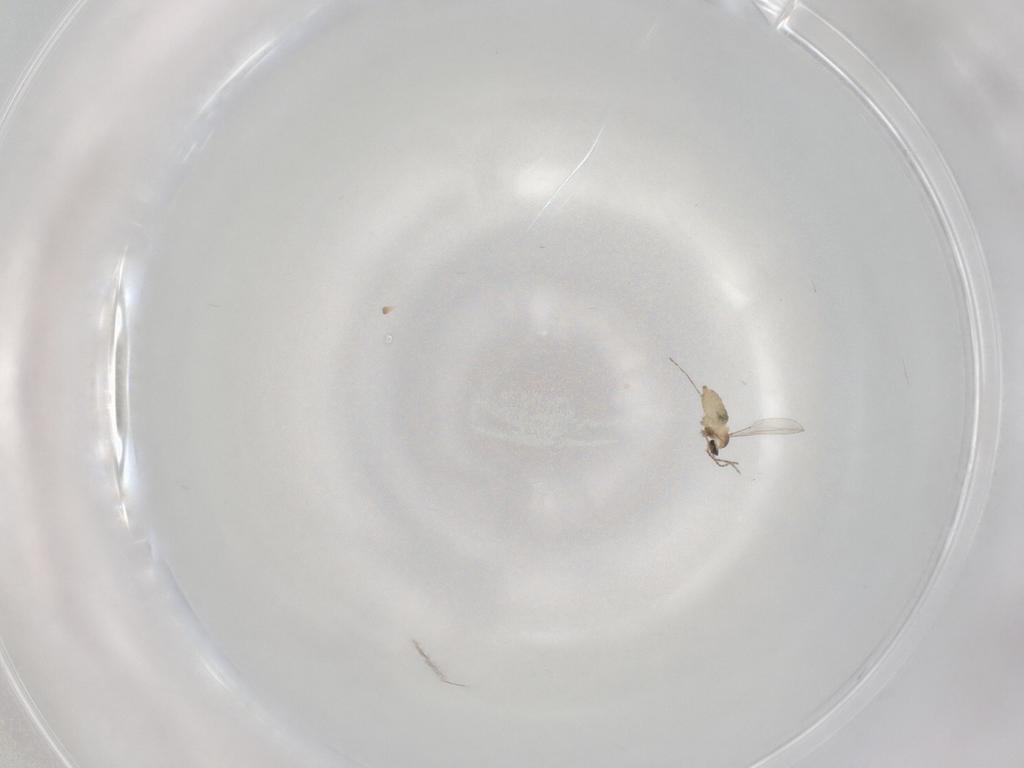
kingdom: Animalia
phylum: Arthropoda
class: Insecta
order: Diptera
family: Cecidomyiidae
